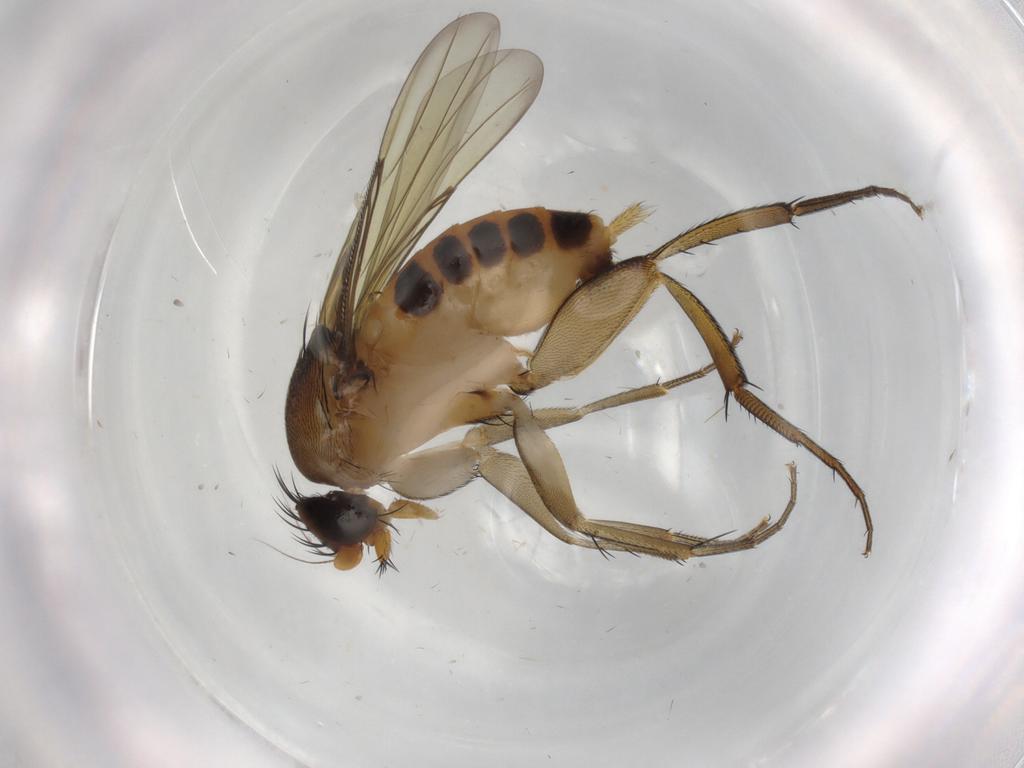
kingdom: Animalia
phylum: Arthropoda
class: Insecta
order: Diptera
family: Phoridae
